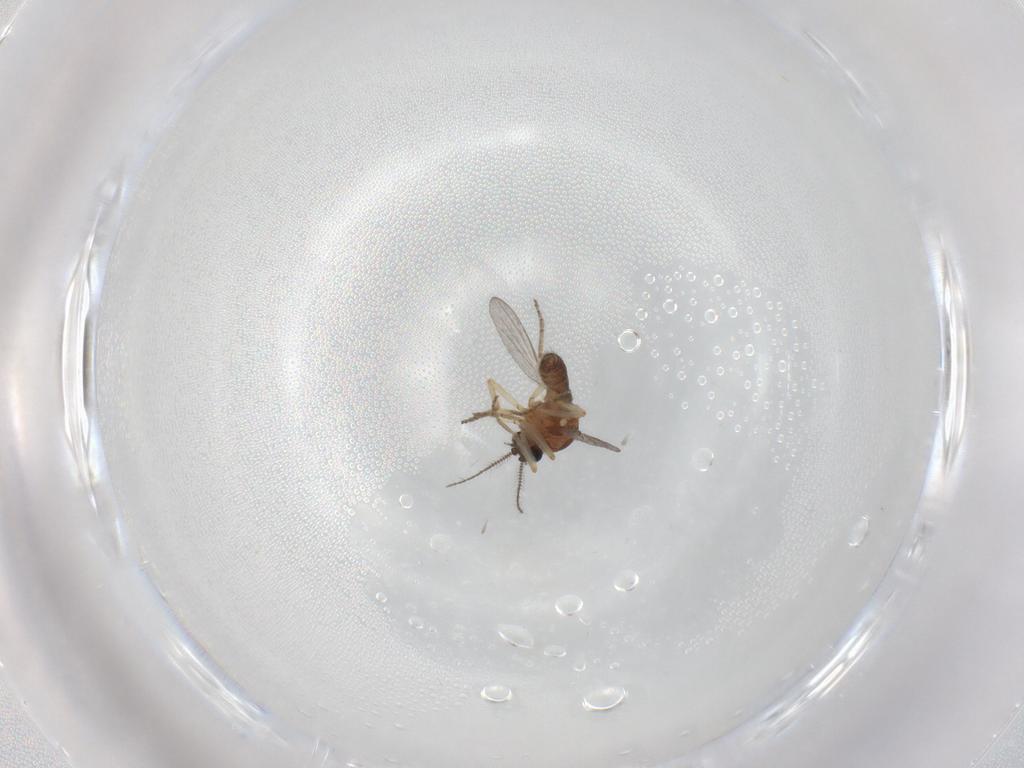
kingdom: Animalia
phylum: Arthropoda
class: Insecta
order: Diptera
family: Ceratopogonidae
